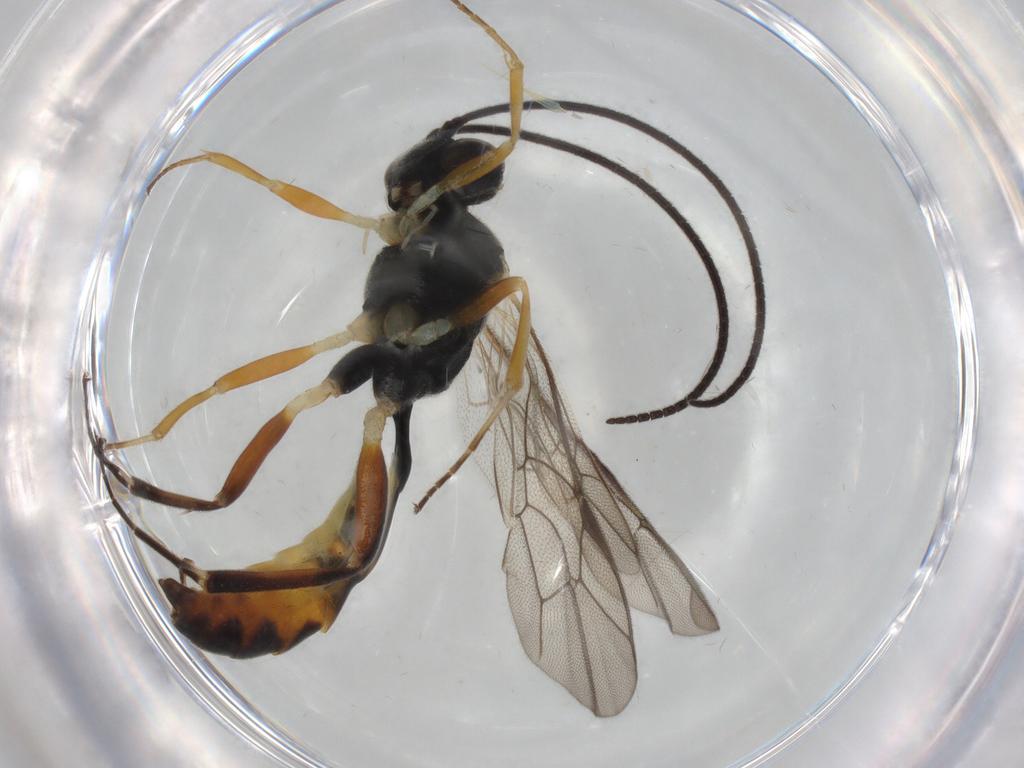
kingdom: Animalia
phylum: Arthropoda
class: Insecta
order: Hymenoptera
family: Ichneumonidae
